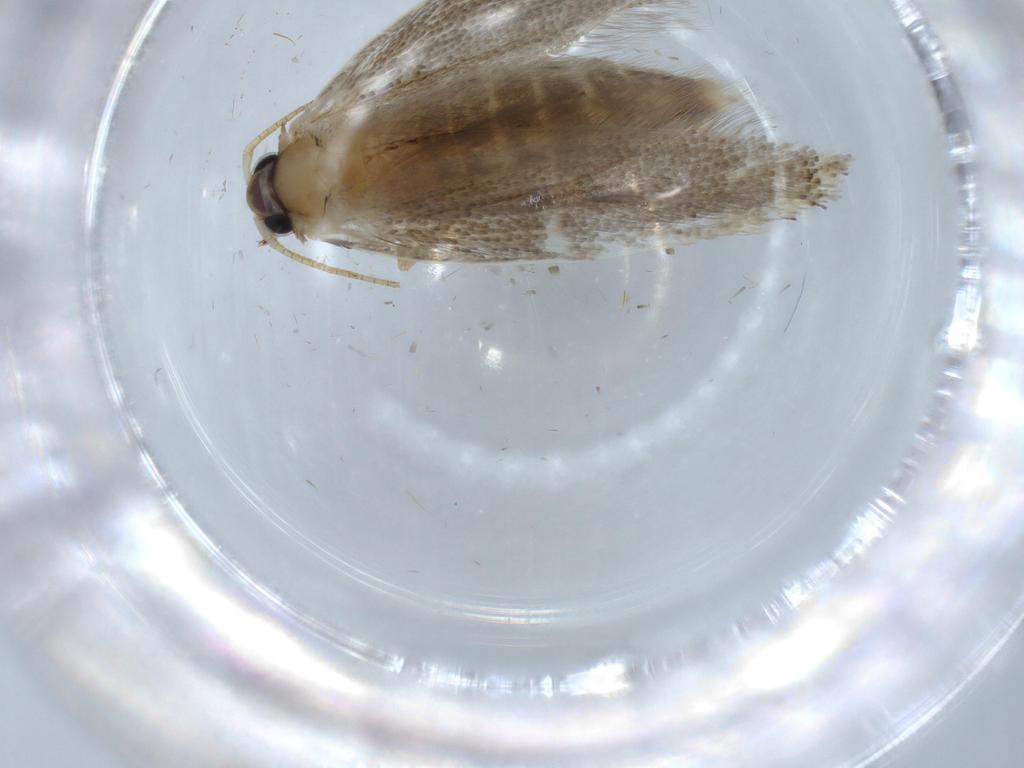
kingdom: Animalia
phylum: Arthropoda
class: Insecta
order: Lepidoptera
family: Tineidae
